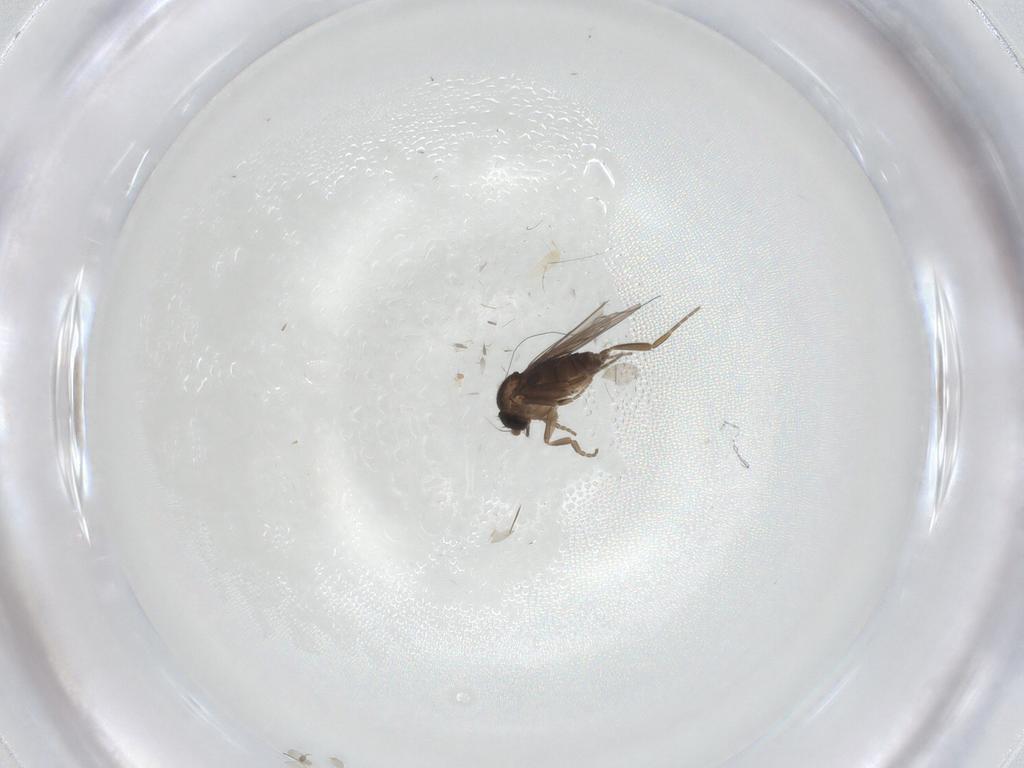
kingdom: Animalia
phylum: Arthropoda
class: Insecta
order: Diptera
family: Phoridae
